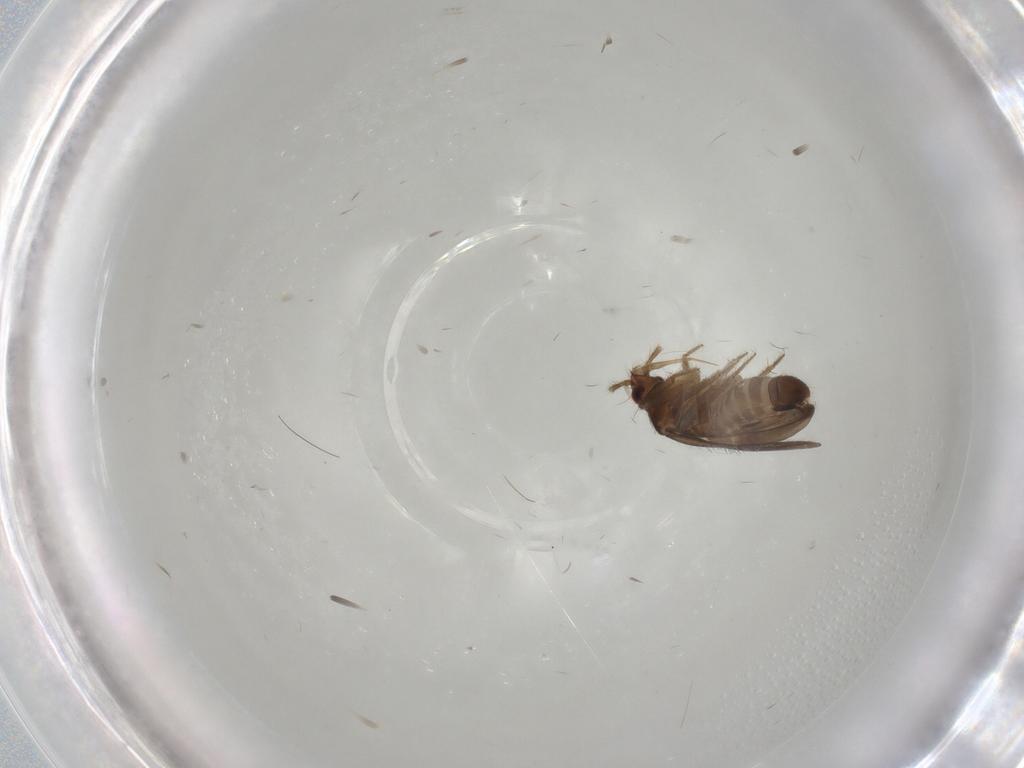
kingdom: Animalia
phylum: Arthropoda
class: Insecta
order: Hemiptera
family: Ceratocombidae
